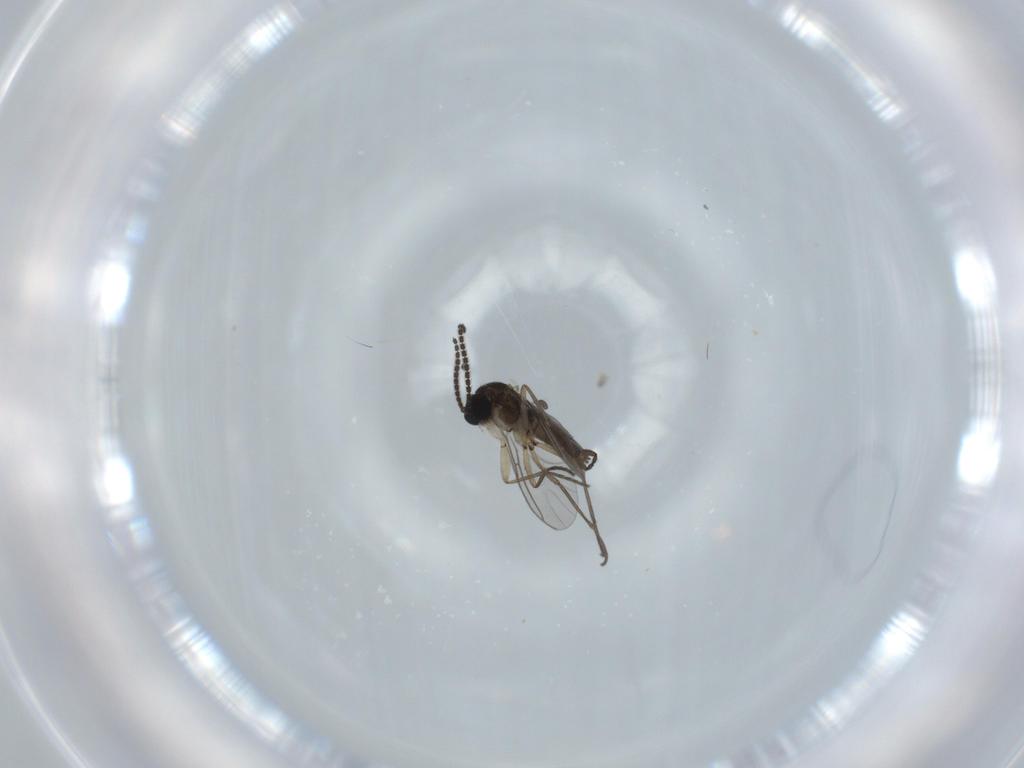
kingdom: Animalia
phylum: Arthropoda
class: Insecta
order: Diptera
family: Sciaridae
